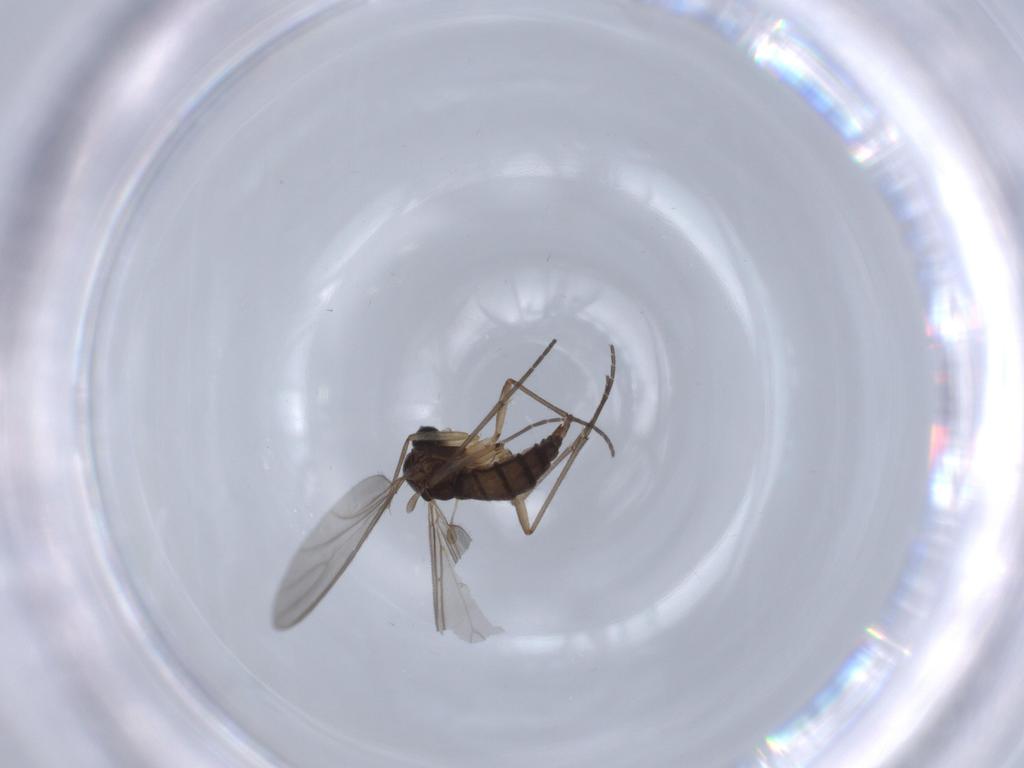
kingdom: Animalia
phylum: Arthropoda
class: Insecta
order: Diptera
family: Sciaridae
